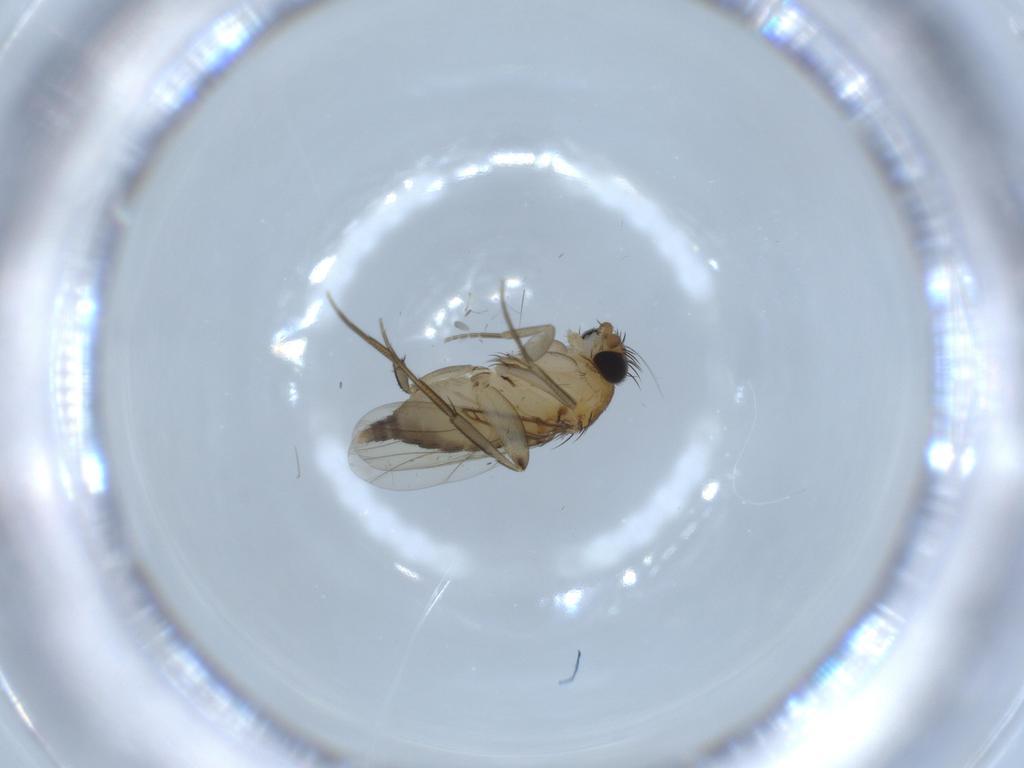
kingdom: Animalia
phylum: Arthropoda
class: Insecta
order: Diptera
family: Phoridae
